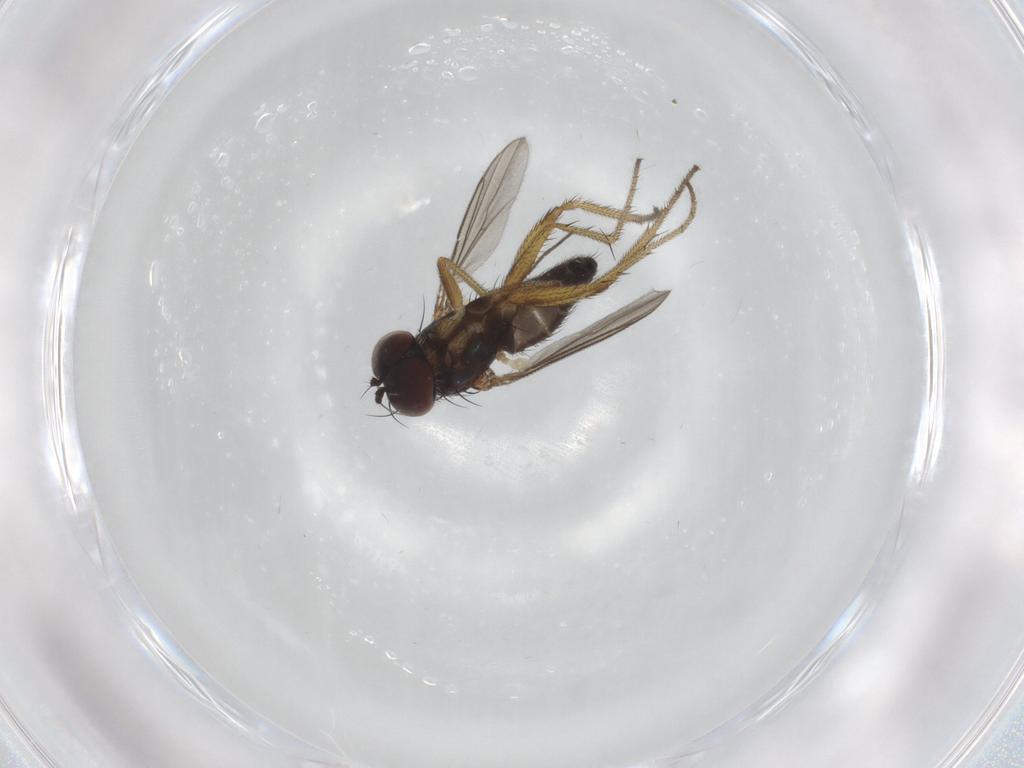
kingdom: Animalia
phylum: Arthropoda
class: Insecta
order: Diptera
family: Dolichopodidae
